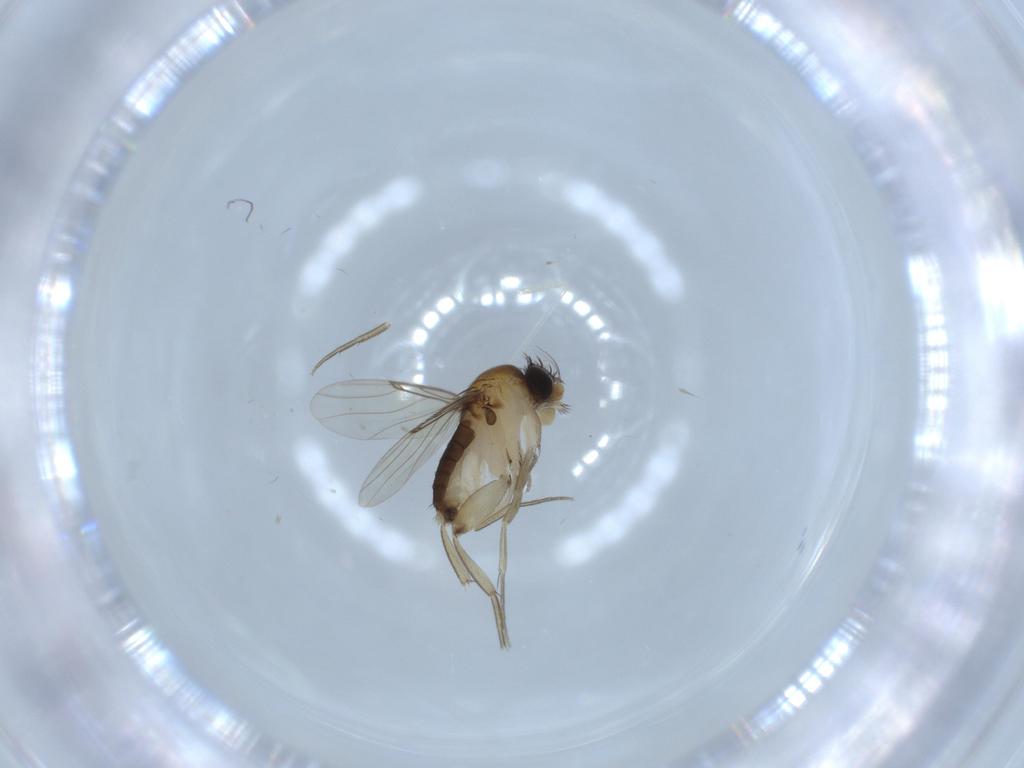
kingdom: Animalia
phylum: Arthropoda
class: Insecta
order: Diptera
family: Phoridae
